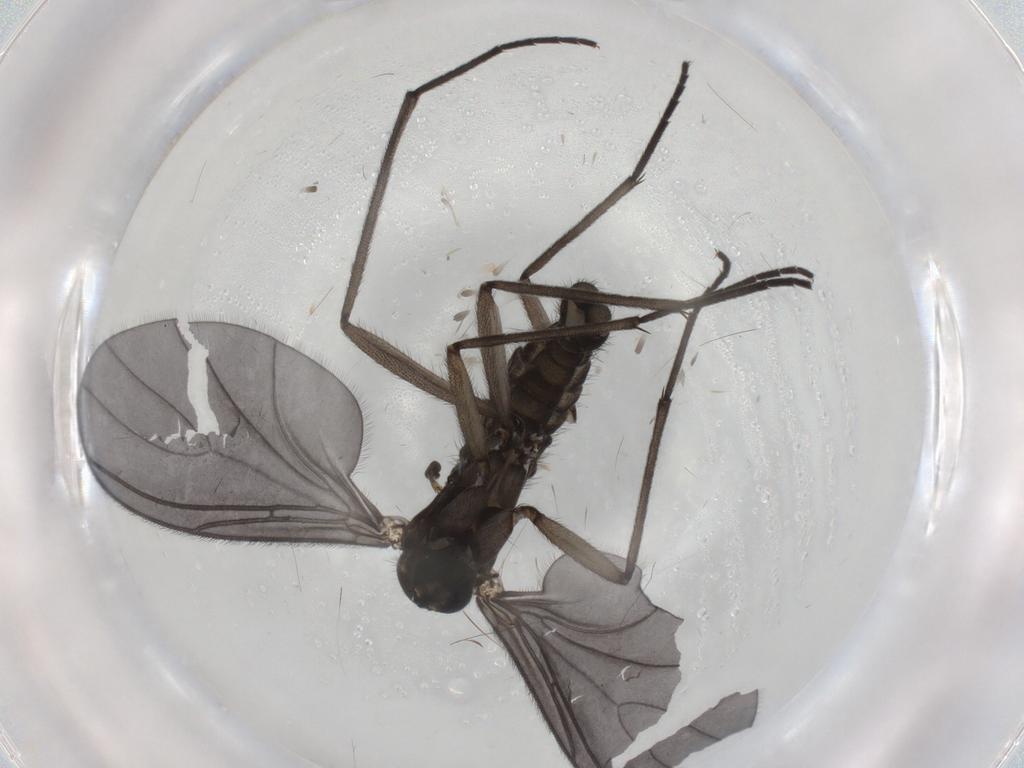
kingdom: Animalia
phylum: Arthropoda
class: Insecta
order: Diptera
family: Sciaridae
